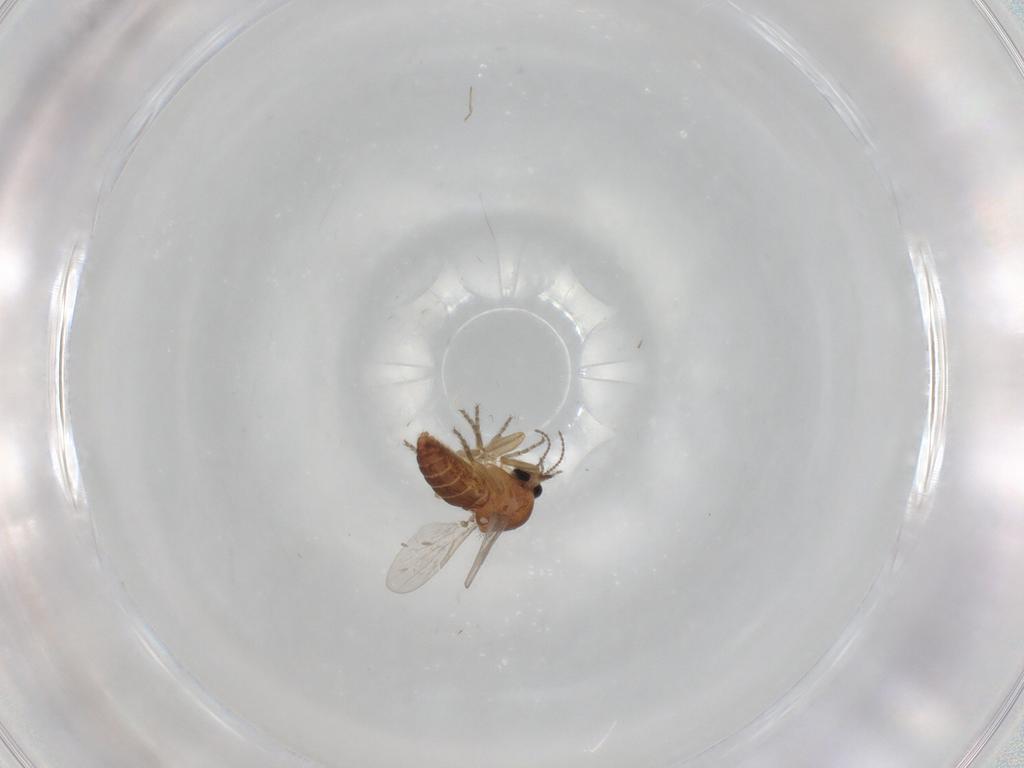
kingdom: Animalia
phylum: Arthropoda
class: Insecta
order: Diptera
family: Ceratopogonidae
